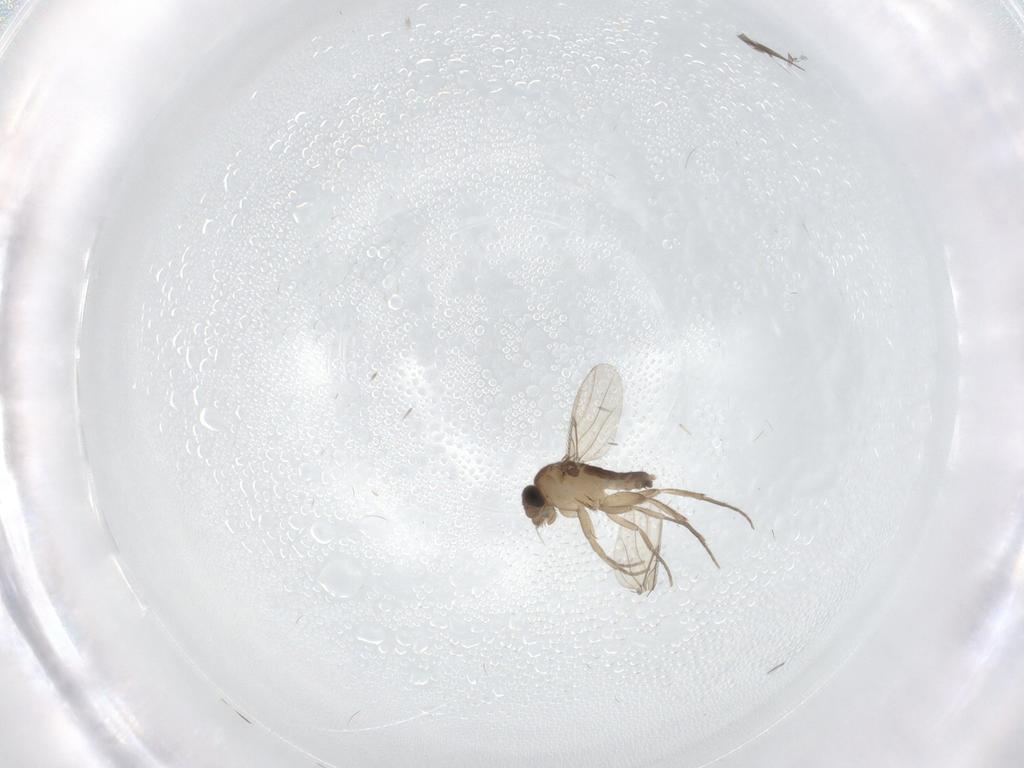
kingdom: Animalia
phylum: Arthropoda
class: Insecta
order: Diptera
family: Phoridae
